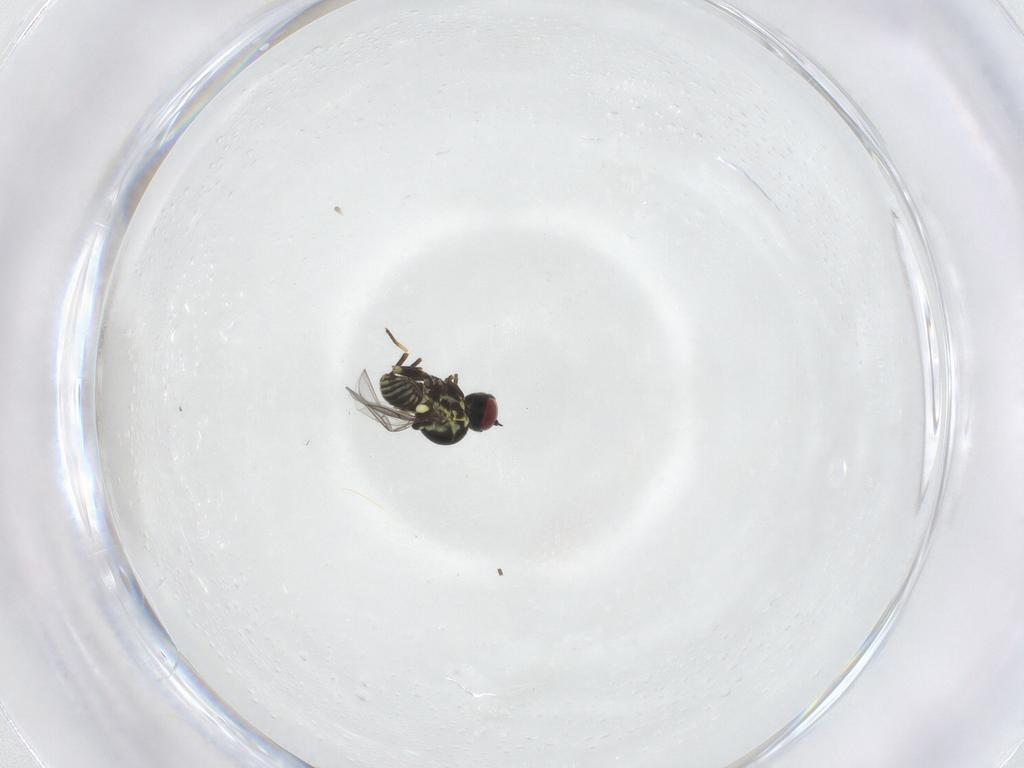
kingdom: Animalia
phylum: Arthropoda
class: Insecta
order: Diptera
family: Mythicomyiidae
